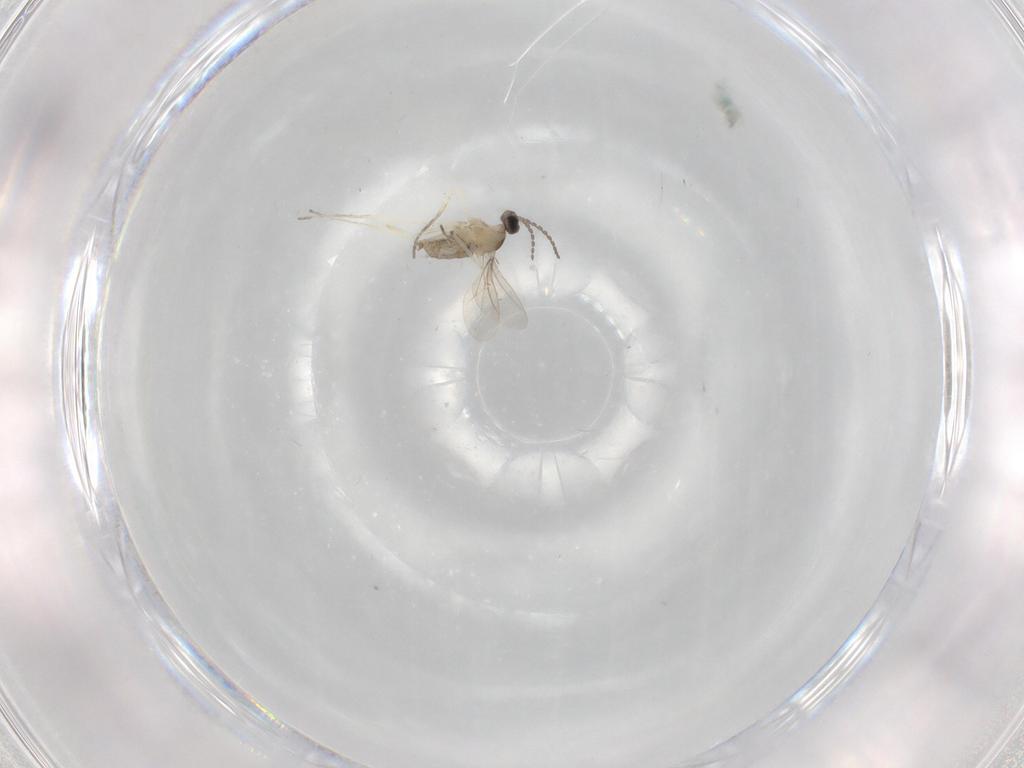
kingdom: Animalia
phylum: Arthropoda
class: Insecta
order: Diptera
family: Cecidomyiidae
